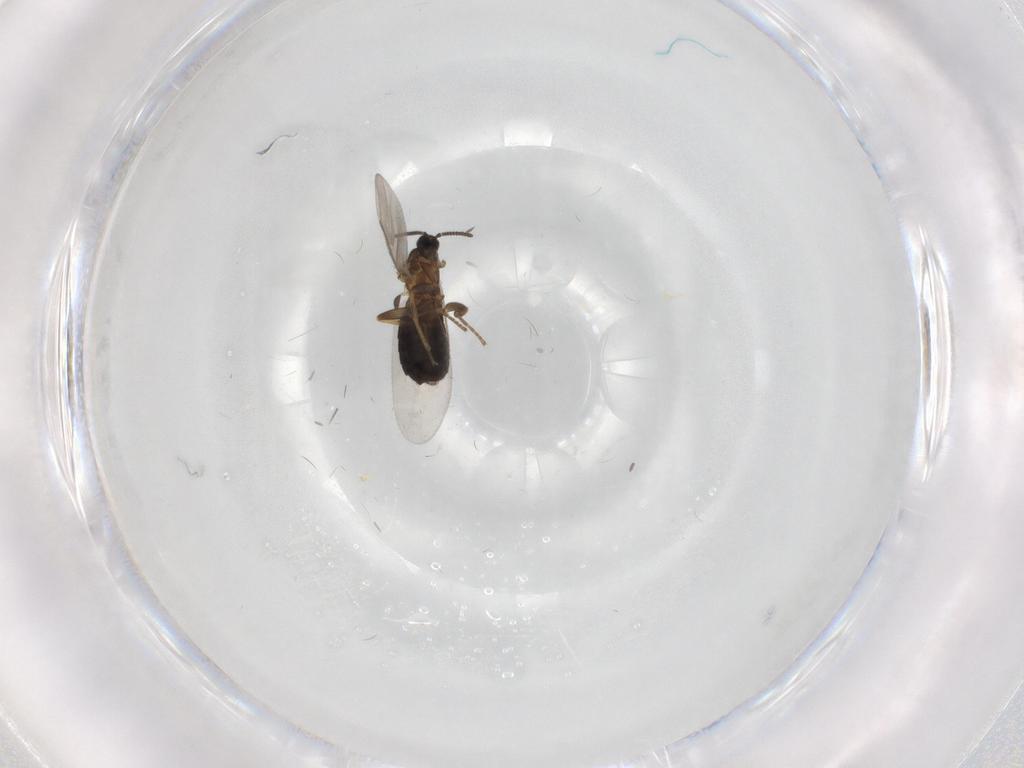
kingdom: Animalia
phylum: Arthropoda
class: Insecta
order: Diptera
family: Scatopsidae
